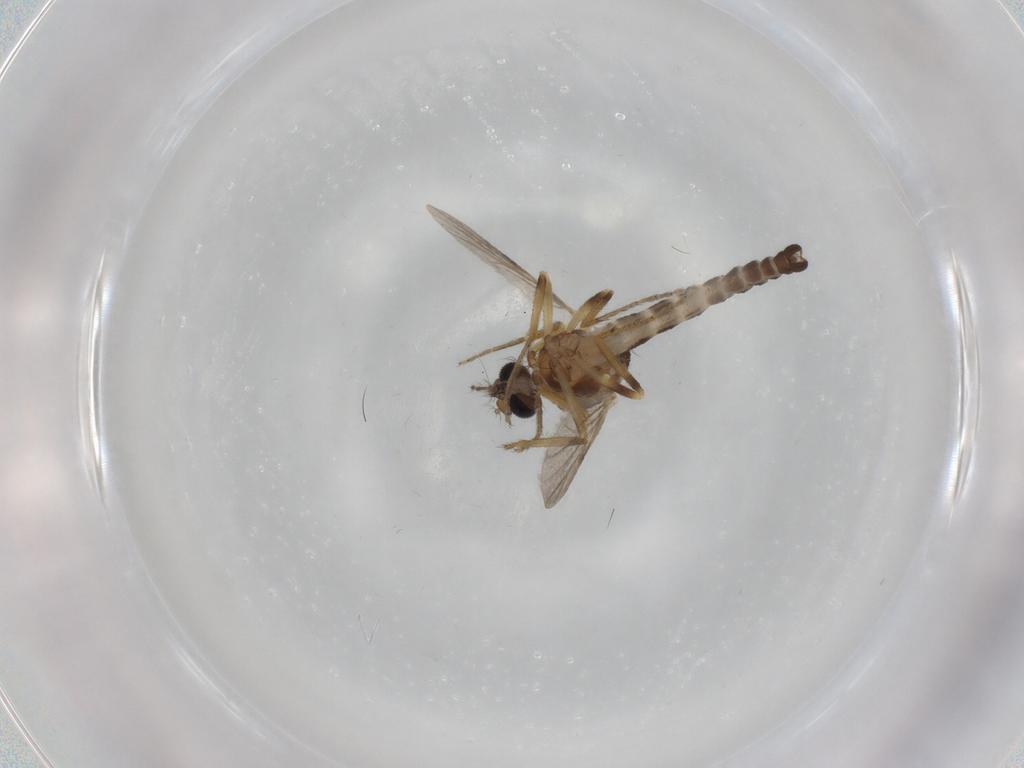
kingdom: Animalia
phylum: Arthropoda
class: Insecta
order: Diptera
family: Ceratopogonidae
